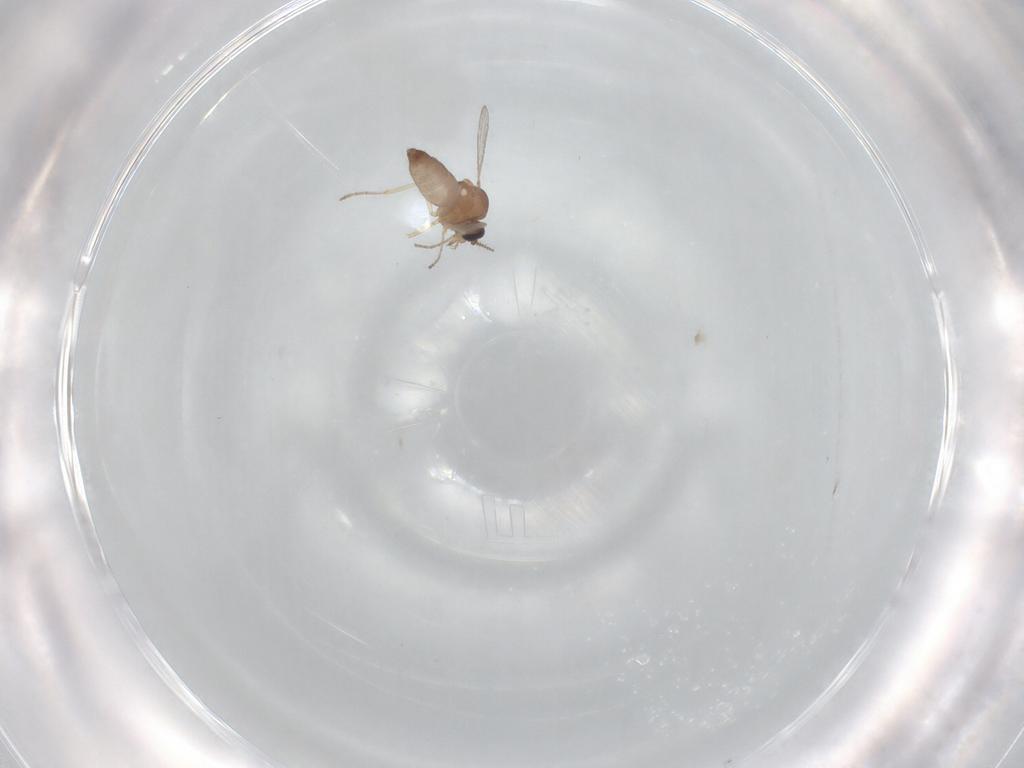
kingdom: Animalia
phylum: Arthropoda
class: Insecta
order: Diptera
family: Ceratopogonidae
